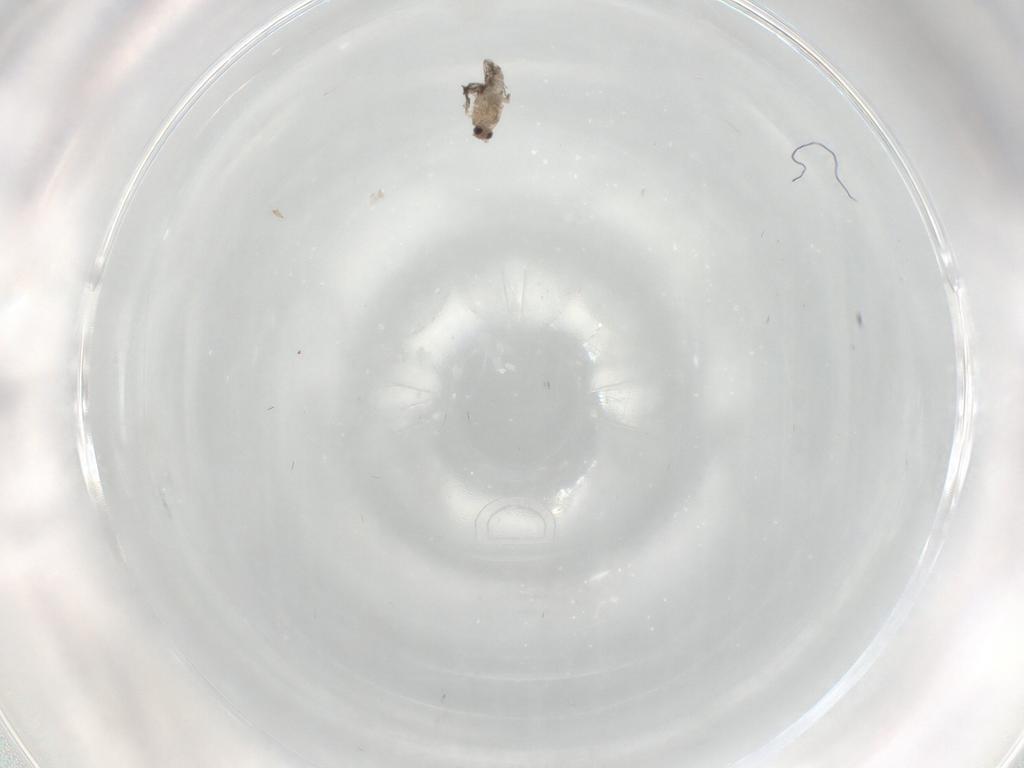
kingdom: Animalia
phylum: Arthropoda
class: Insecta
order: Diptera
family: Cecidomyiidae
